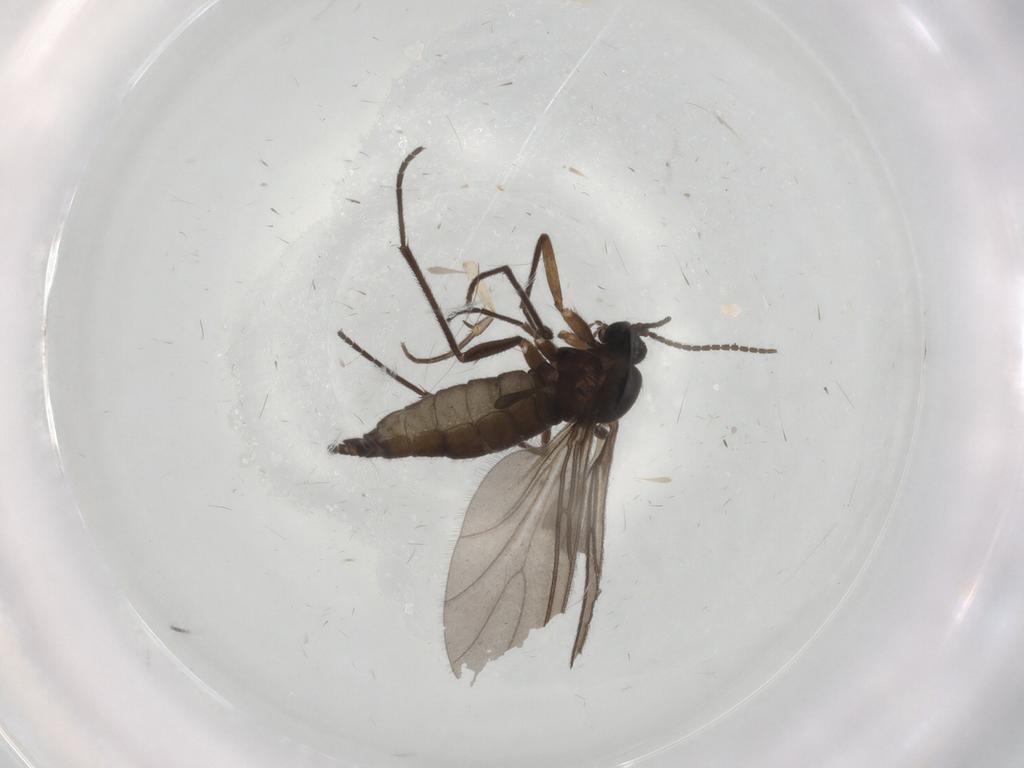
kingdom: Animalia
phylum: Arthropoda
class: Insecta
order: Diptera
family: Sciaridae
